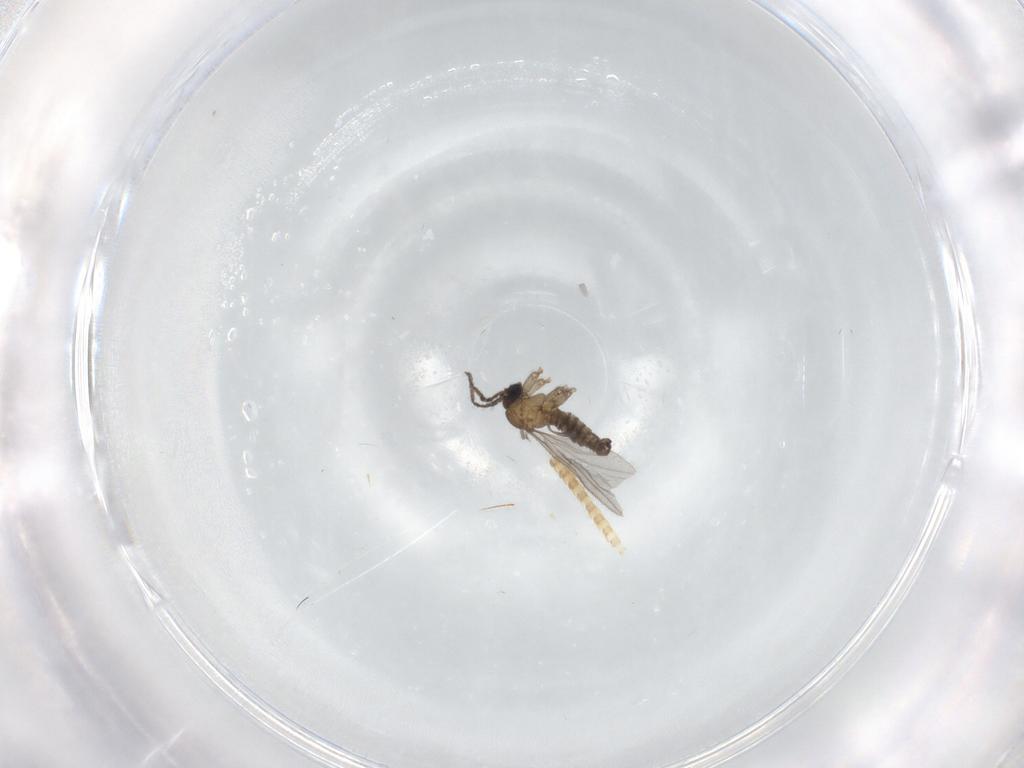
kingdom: Animalia
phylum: Arthropoda
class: Insecta
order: Diptera
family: Sciaridae
